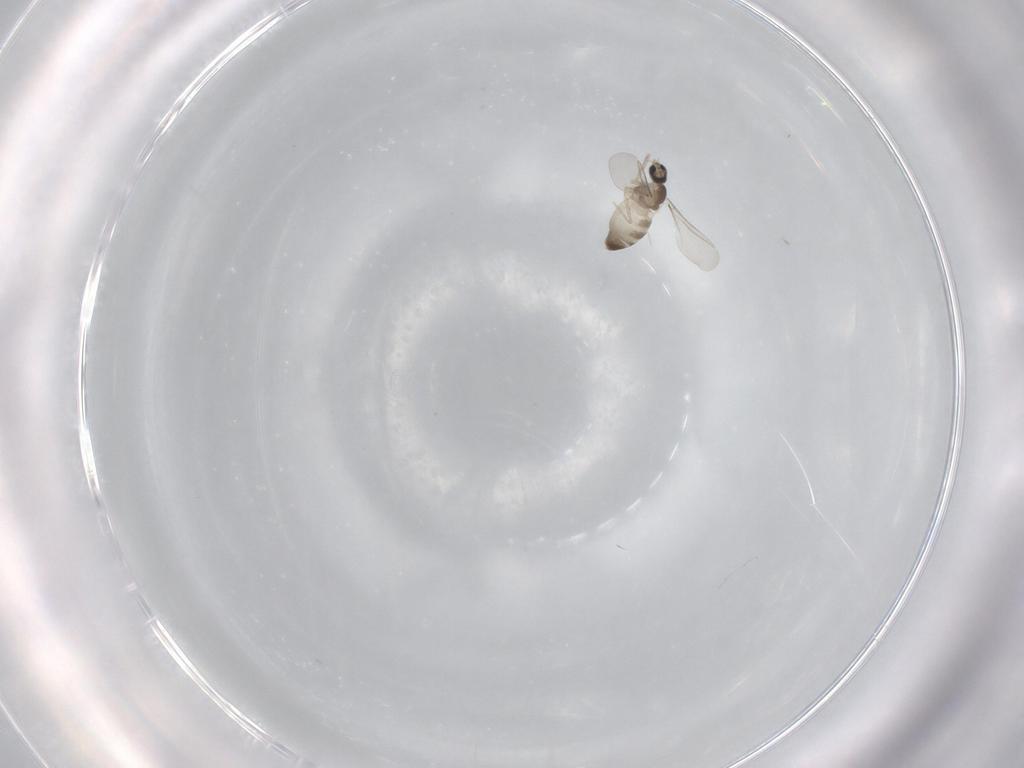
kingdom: Animalia
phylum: Arthropoda
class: Insecta
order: Diptera
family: Cecidomyiidae
